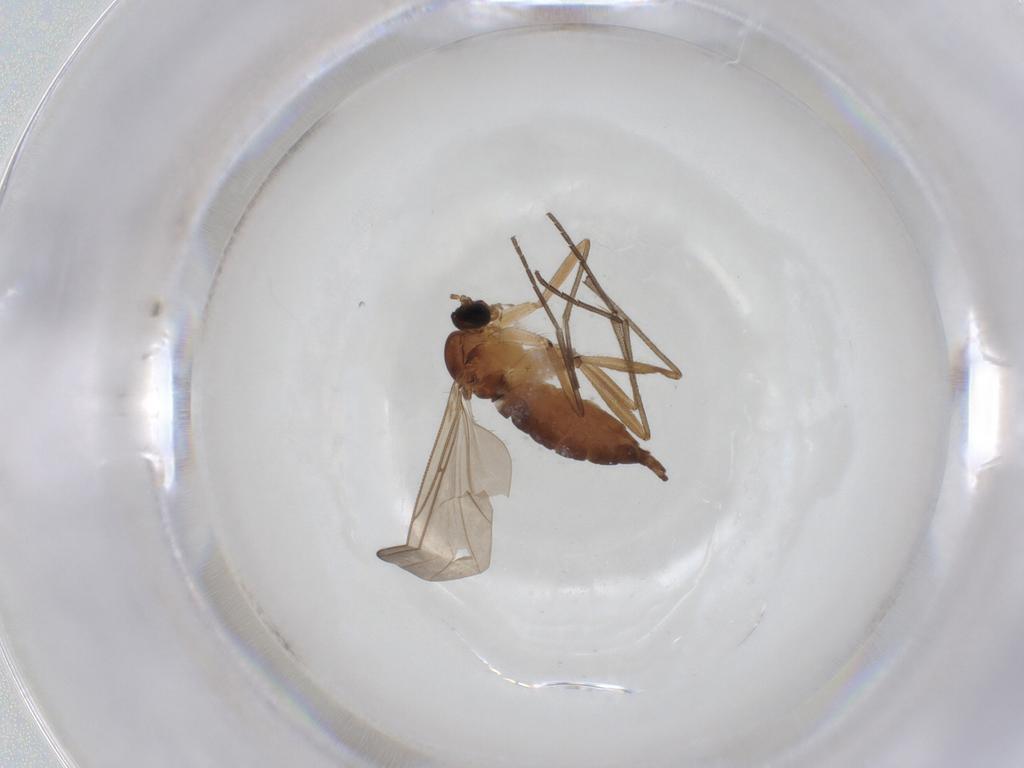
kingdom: Animalia
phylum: Arthropoda
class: Insecta
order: Diptera
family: Sciaridae
